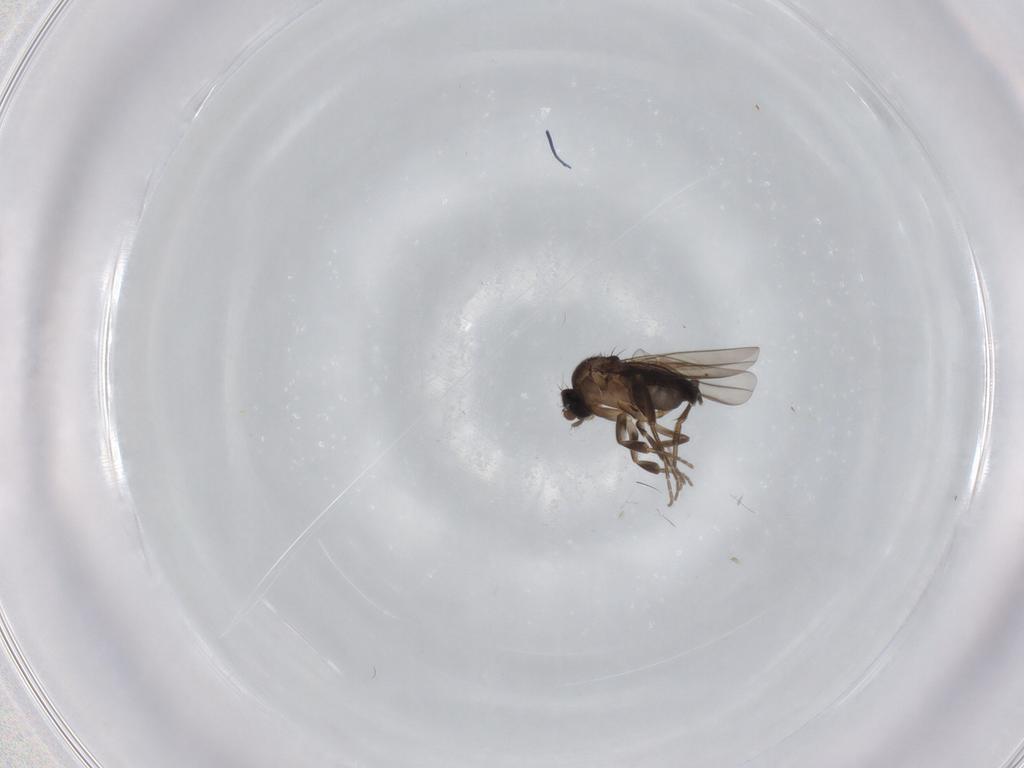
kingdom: Animalia
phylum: Arthropoda
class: Insecta
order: Diptera
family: Phoridae
